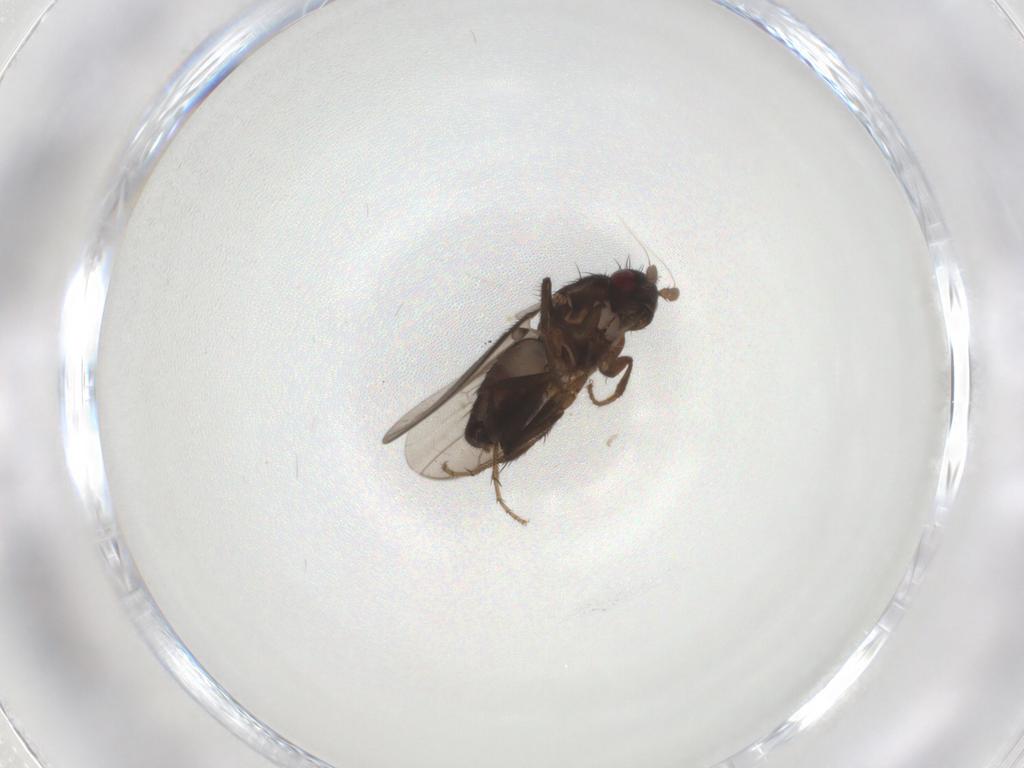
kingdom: Animalia
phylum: Arthropoda
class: Insecta
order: Diptera
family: Sphaeroceridae
